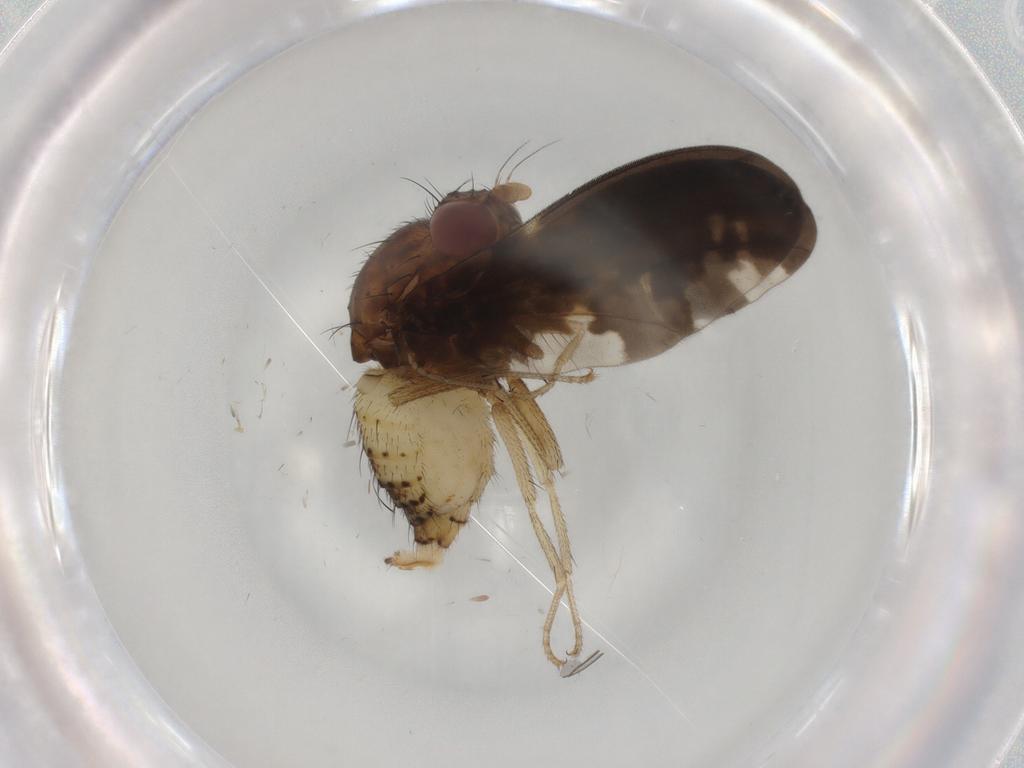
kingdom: Animalia
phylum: Arthropoda
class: Insecta
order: Diptera
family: Lauxaniidae
